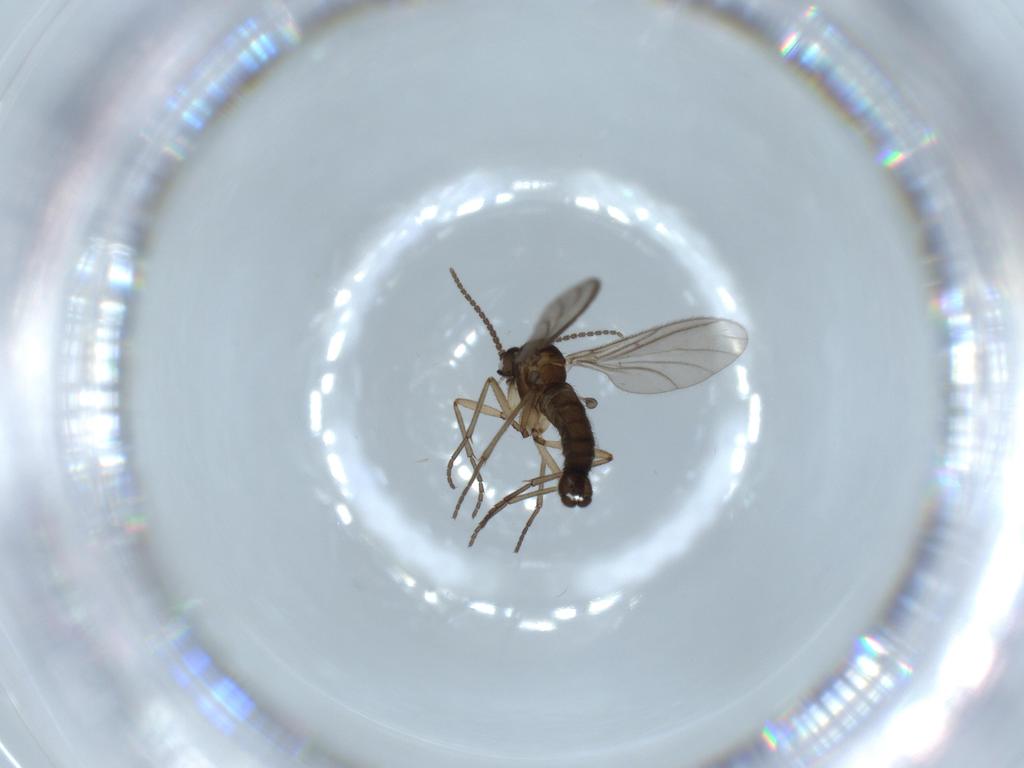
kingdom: Animalia
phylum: Arthropoda
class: Insecta
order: Diptera
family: Sciaridae
